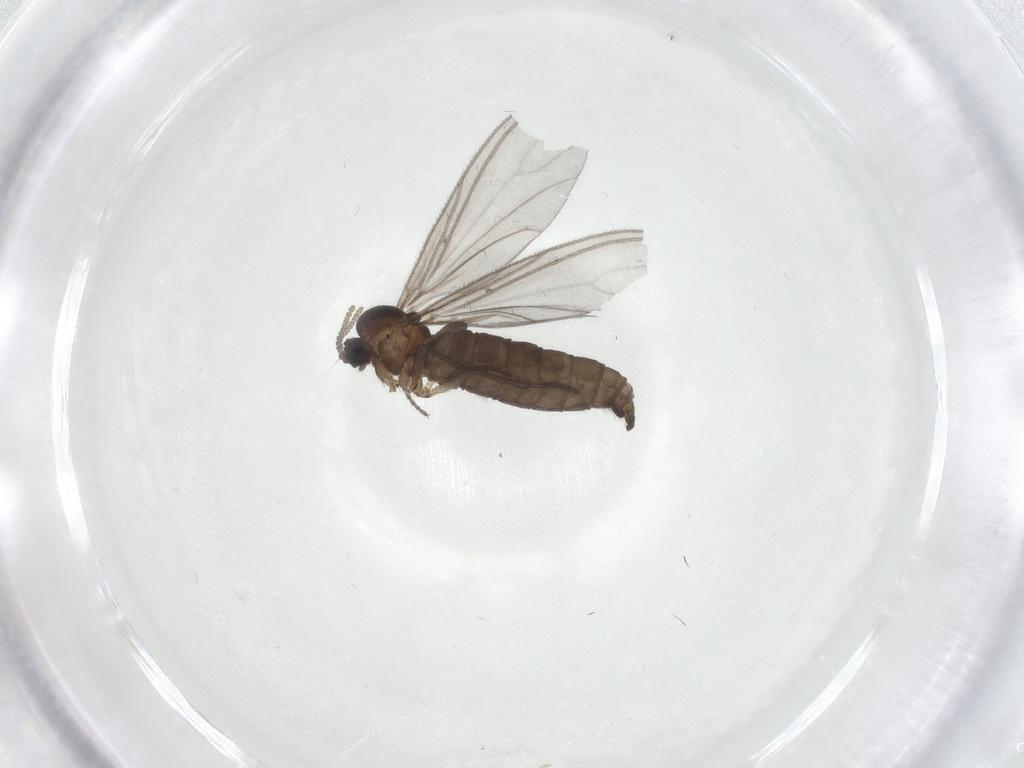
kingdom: Animalia
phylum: Arthropoda
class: Insecta
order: Diptera
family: Sciaridae
